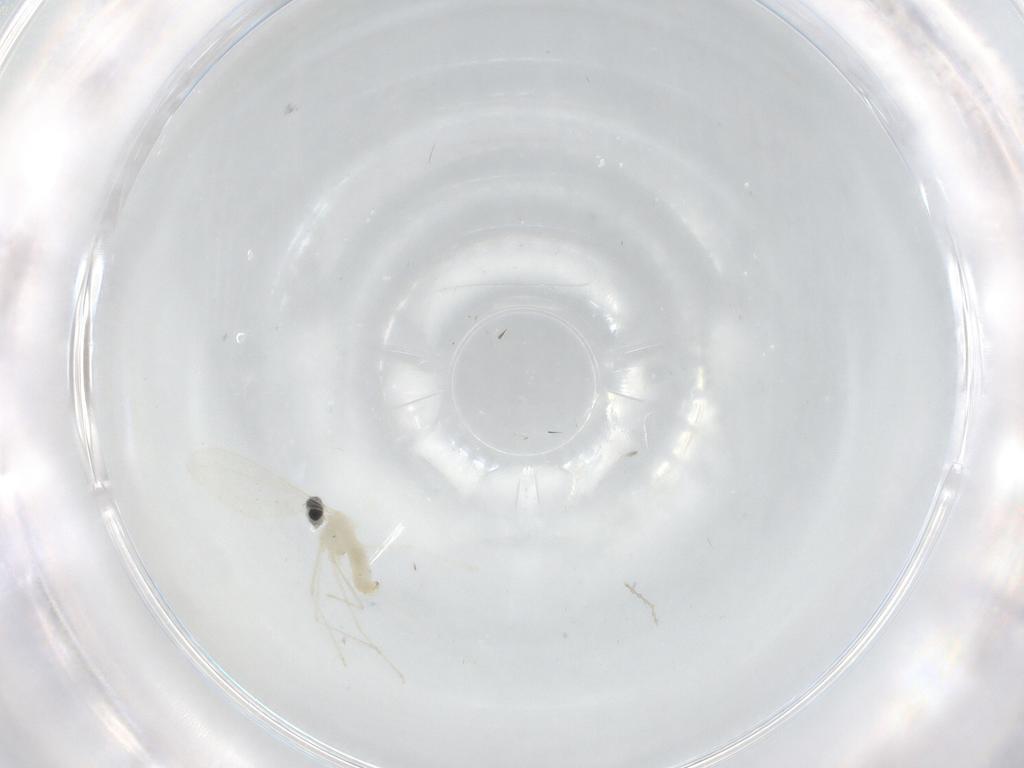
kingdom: Animalia
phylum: Arthropoda
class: Insecta
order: Diptera
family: Cecidomyiidae
